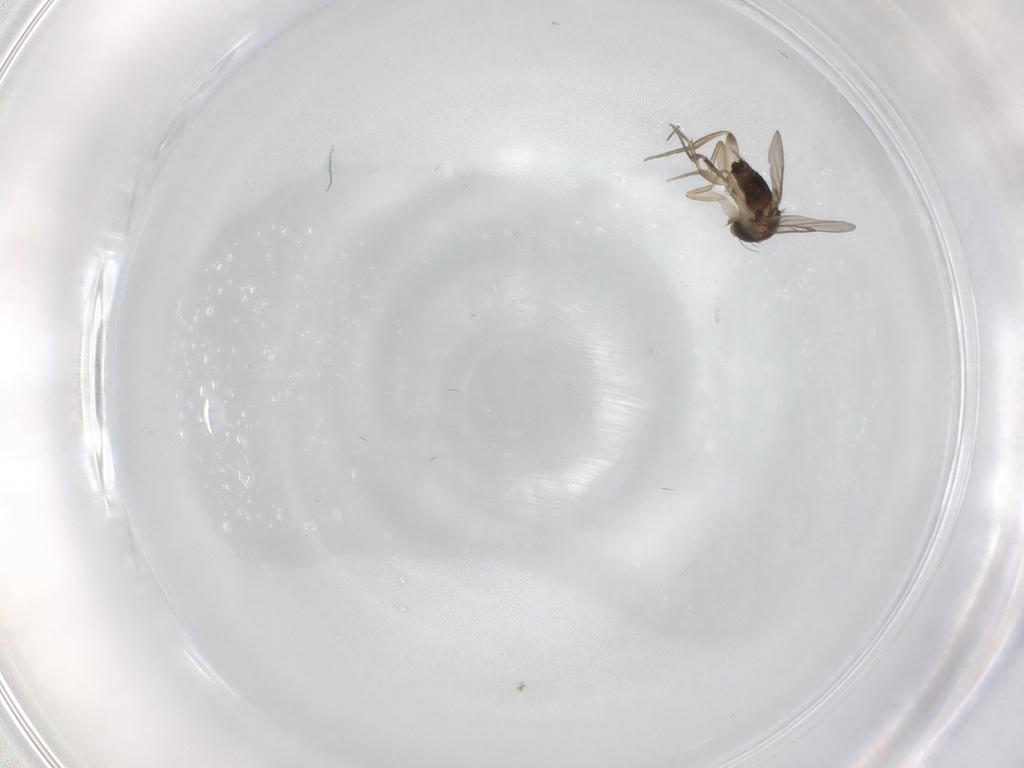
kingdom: Animalia
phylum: Arthropoda
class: Insecta
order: Diptera
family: Phoridae
